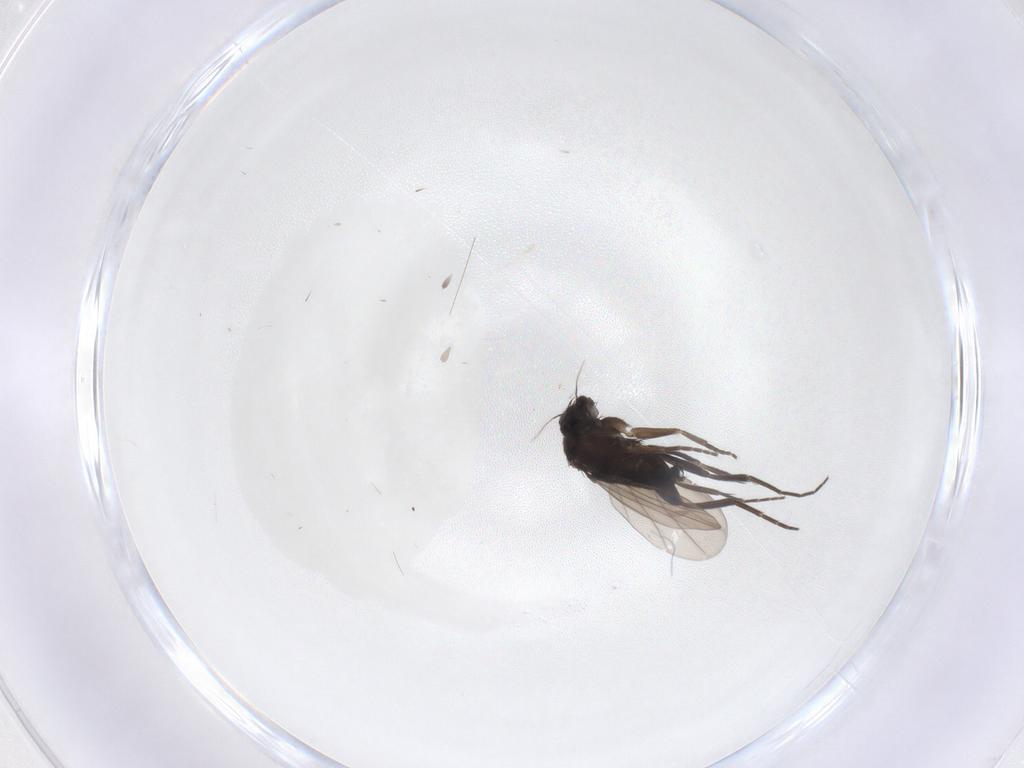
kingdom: Animalia
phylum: Arthropoda
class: Insecta
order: Diptera
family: Phoridae
